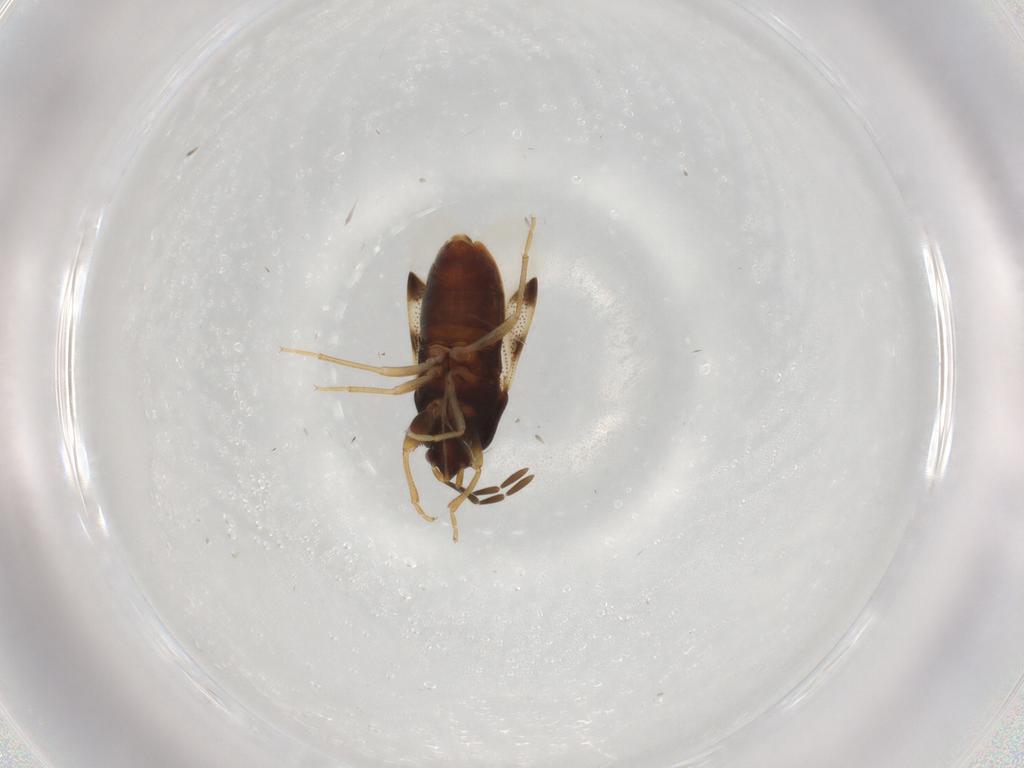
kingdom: Animalia
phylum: Arthropoda
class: Insecta
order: Hemiptera
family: Rhyparochromidae
